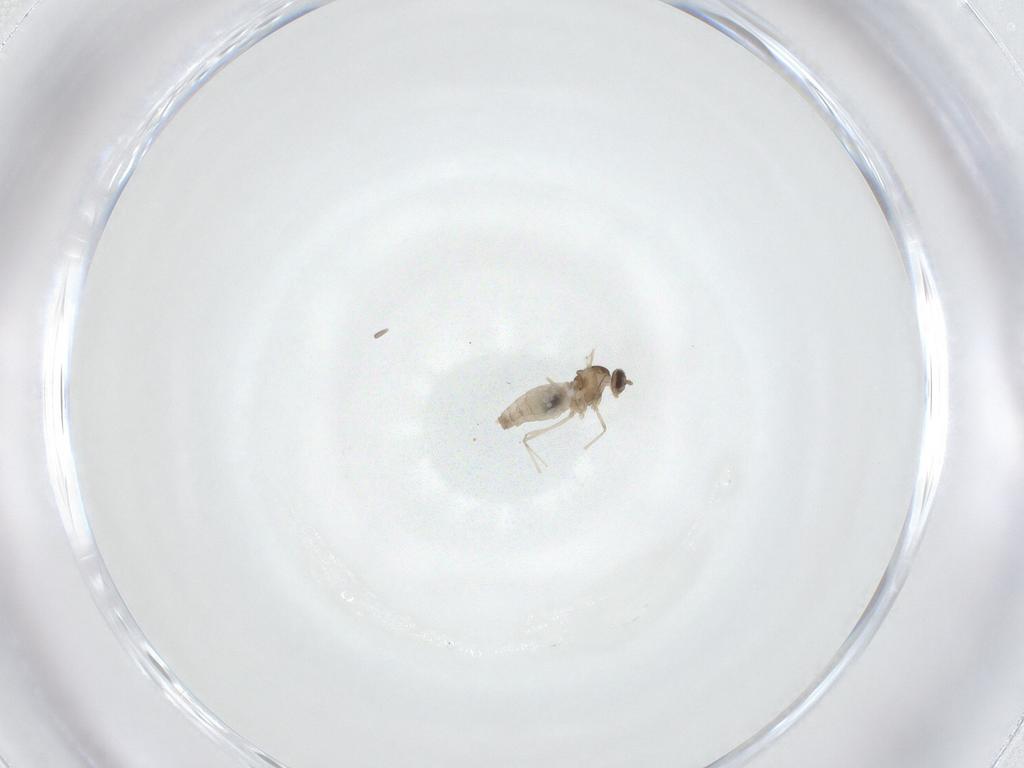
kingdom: Animalia
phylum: Arthropoda
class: Insecta
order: Diptera
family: Cecidomyiidae
